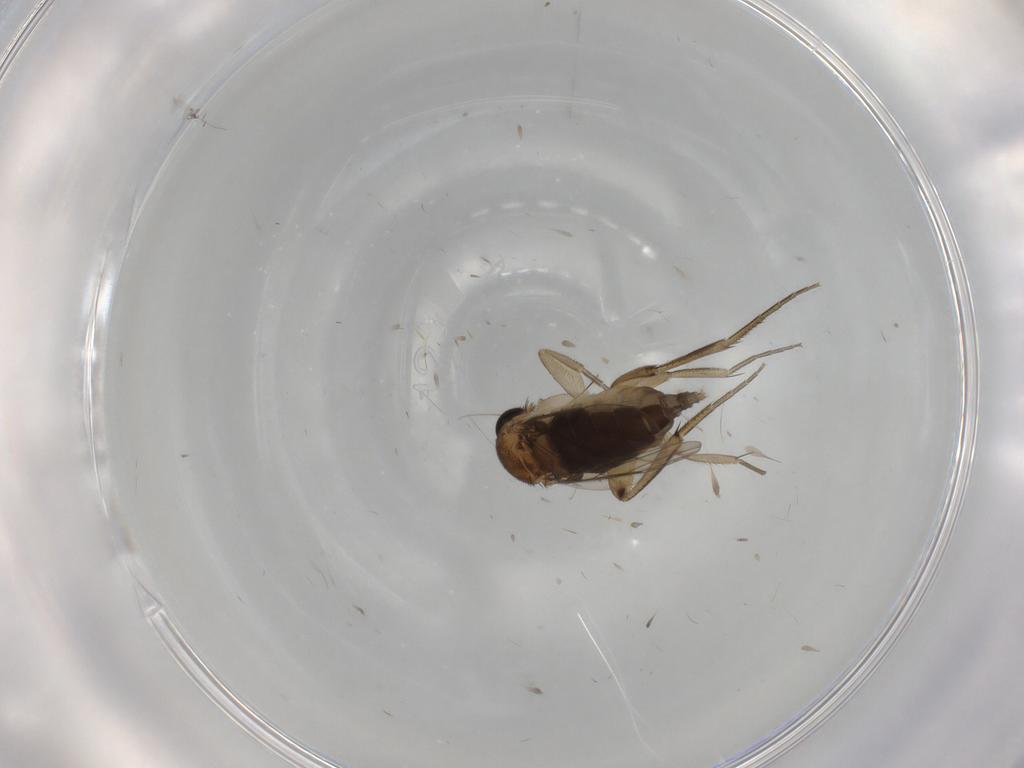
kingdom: Animalia
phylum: Arthropoda
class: Insecta
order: Diptera
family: Phoridae
